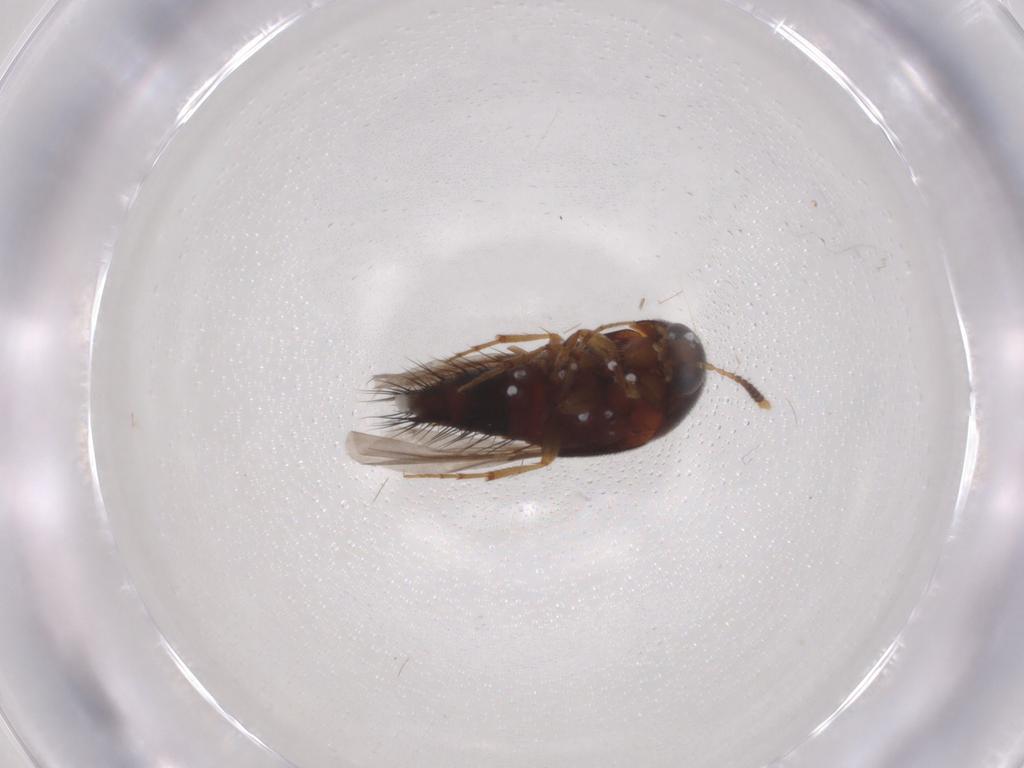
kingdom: Animalia
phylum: Arthropoda
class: Insecta
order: Coleoptera
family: Staphylinidae
